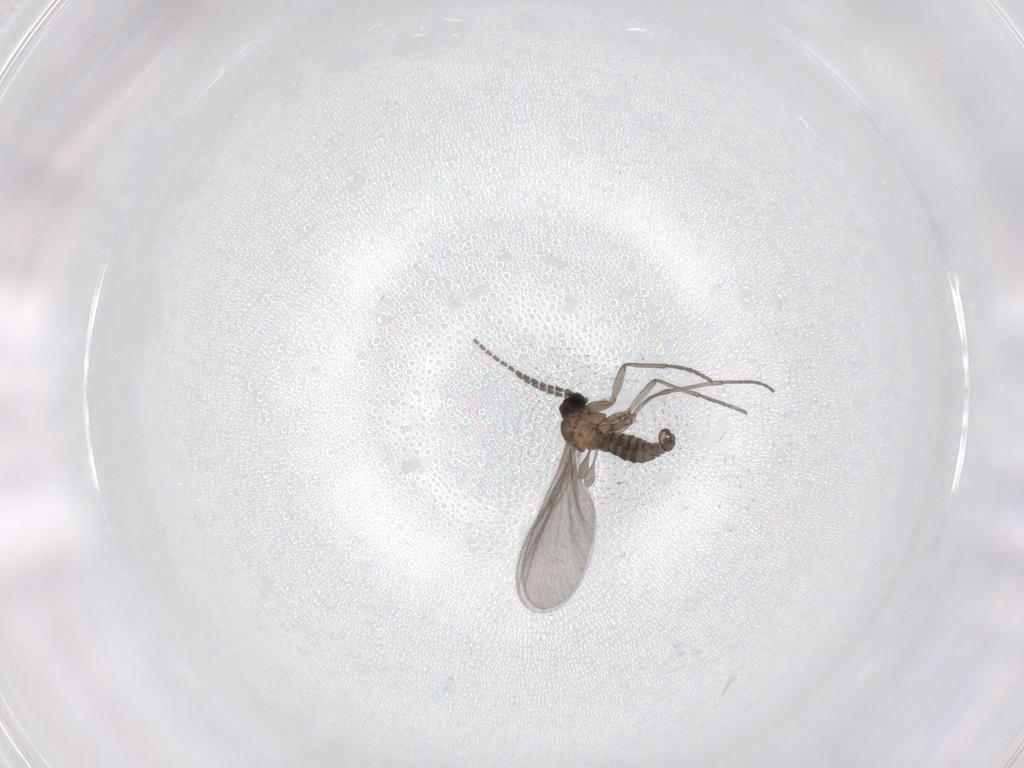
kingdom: Animalia
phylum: Arthropoda
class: Insecta
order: Diptera
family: Sciaridae
